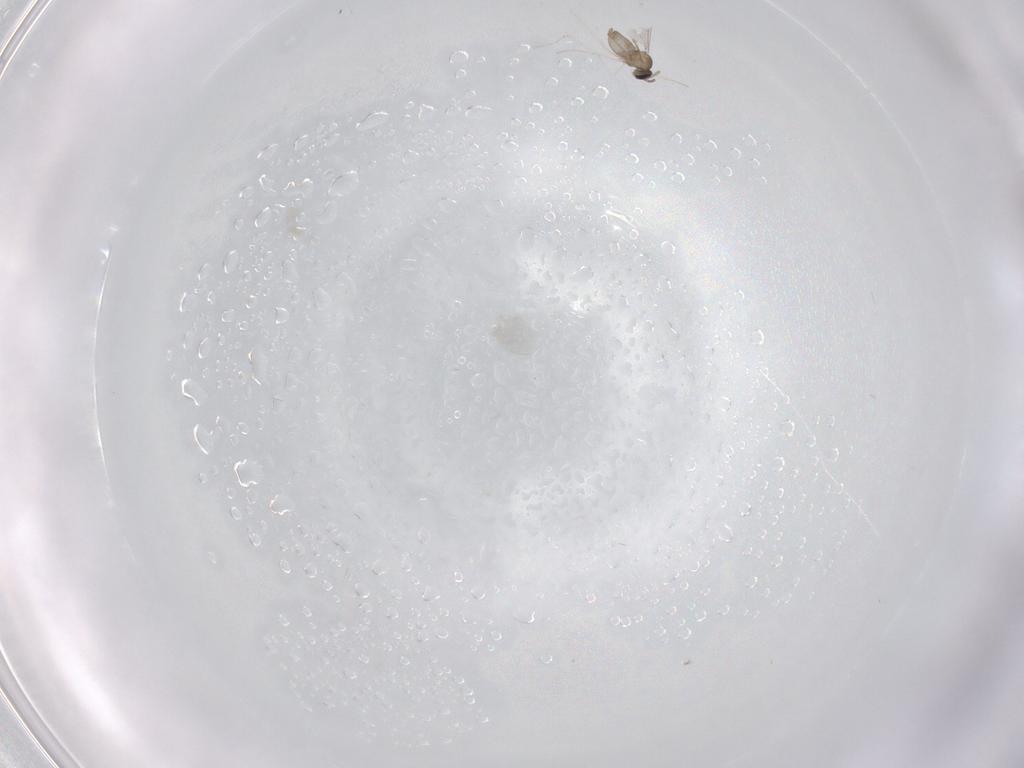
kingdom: Animalia
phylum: Arthropoda
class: Insecta
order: Diptera
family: Cecidomyiidae
